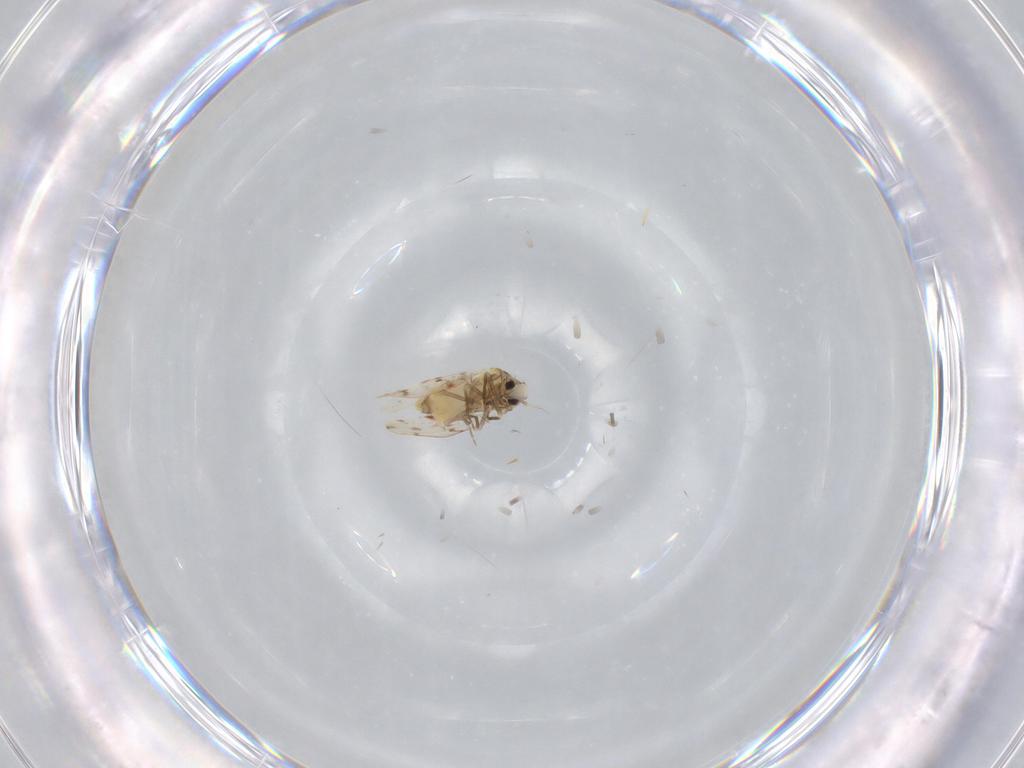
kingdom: Animalia
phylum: Arthropoda
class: Insecta
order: Hemiptera
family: Aleyrodidae
